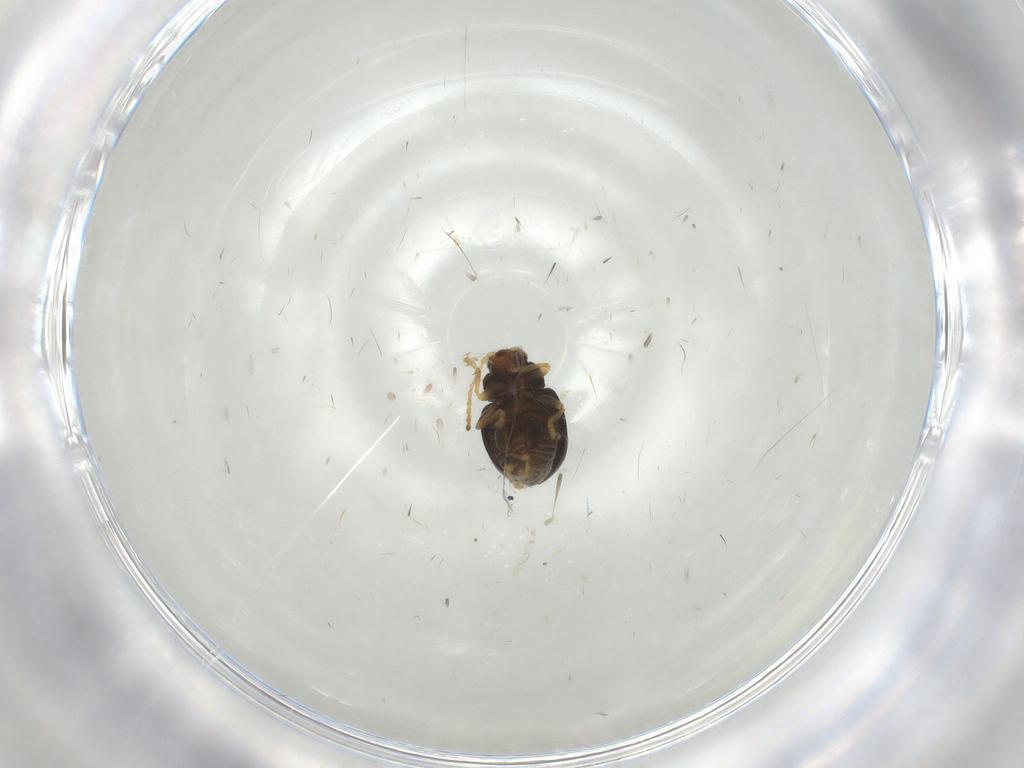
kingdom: Animalia
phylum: Arthropoda
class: Insecta
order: Coleoptera
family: Chrysomelidae
